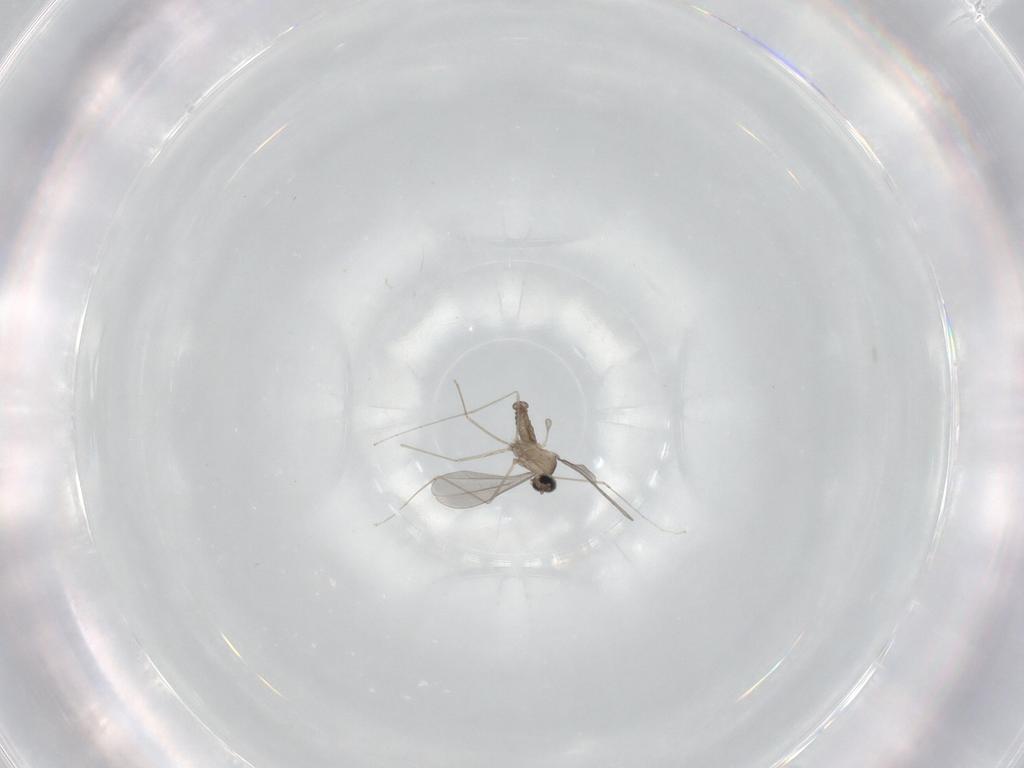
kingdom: Animalia
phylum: Arthropoda
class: Insecta
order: Diptera
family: Cecidomyiidae
